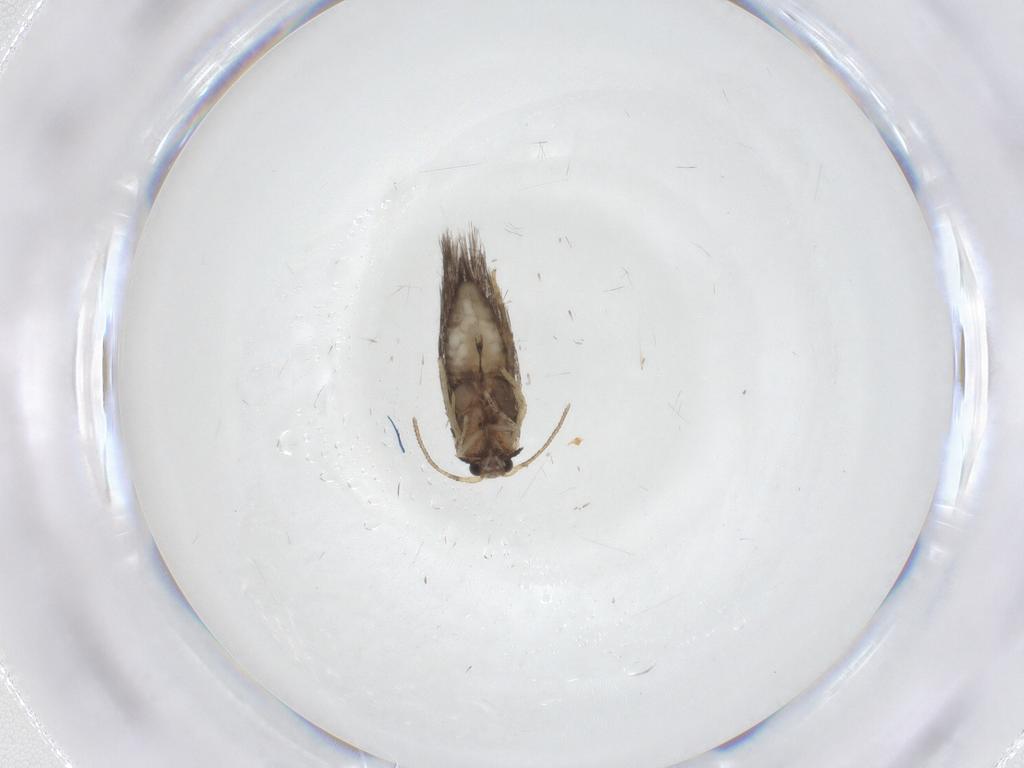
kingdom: Animalia
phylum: Arthropoda
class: Insecta
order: Lepidoptera
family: Nepticulidae
